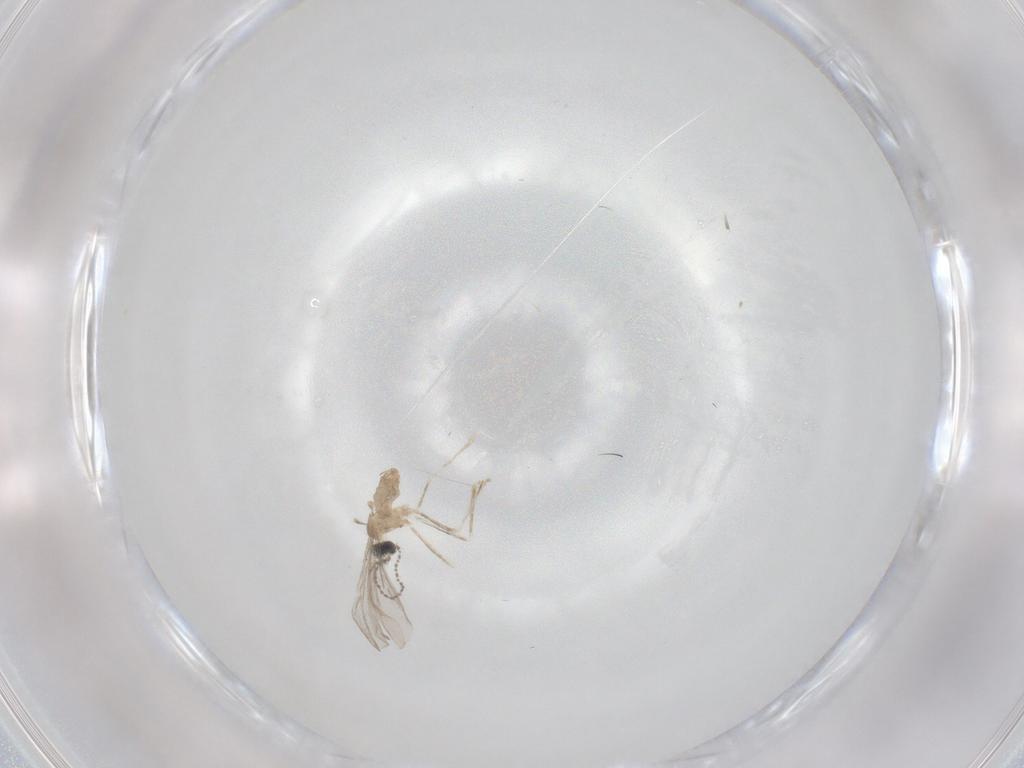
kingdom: Animalia
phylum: Arthropoda
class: Insecta
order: Diptera
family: Cecidomyiidae
